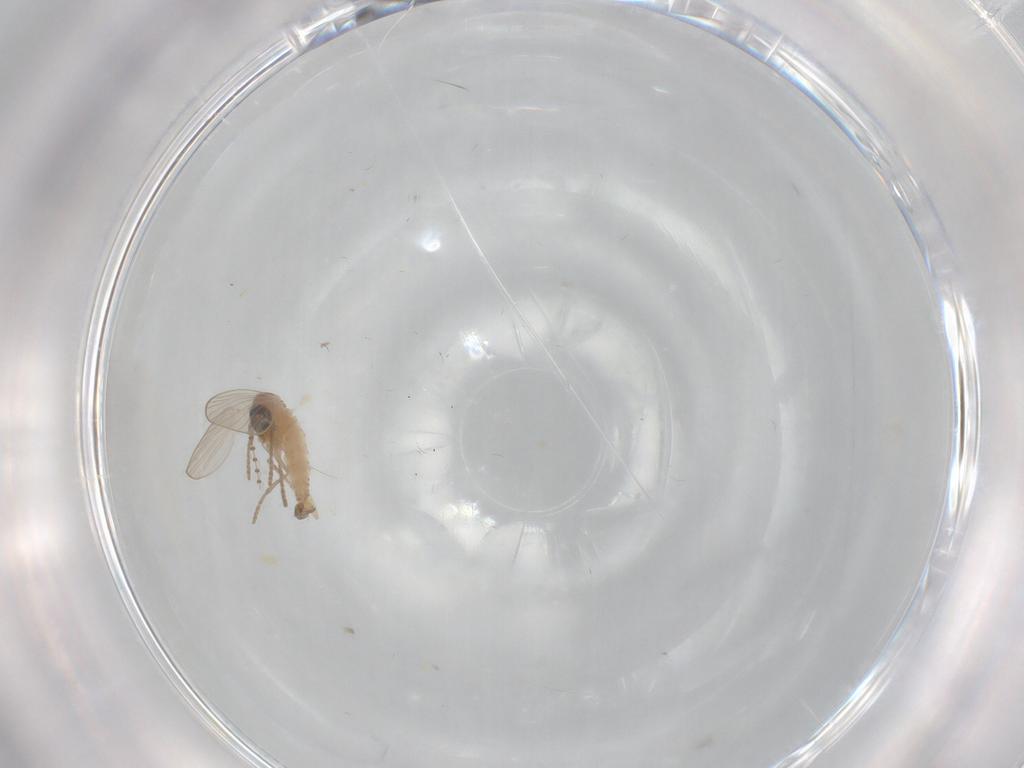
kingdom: Animalia
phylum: Arthropoda
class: Insecta
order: Diptera
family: Psychodidae
